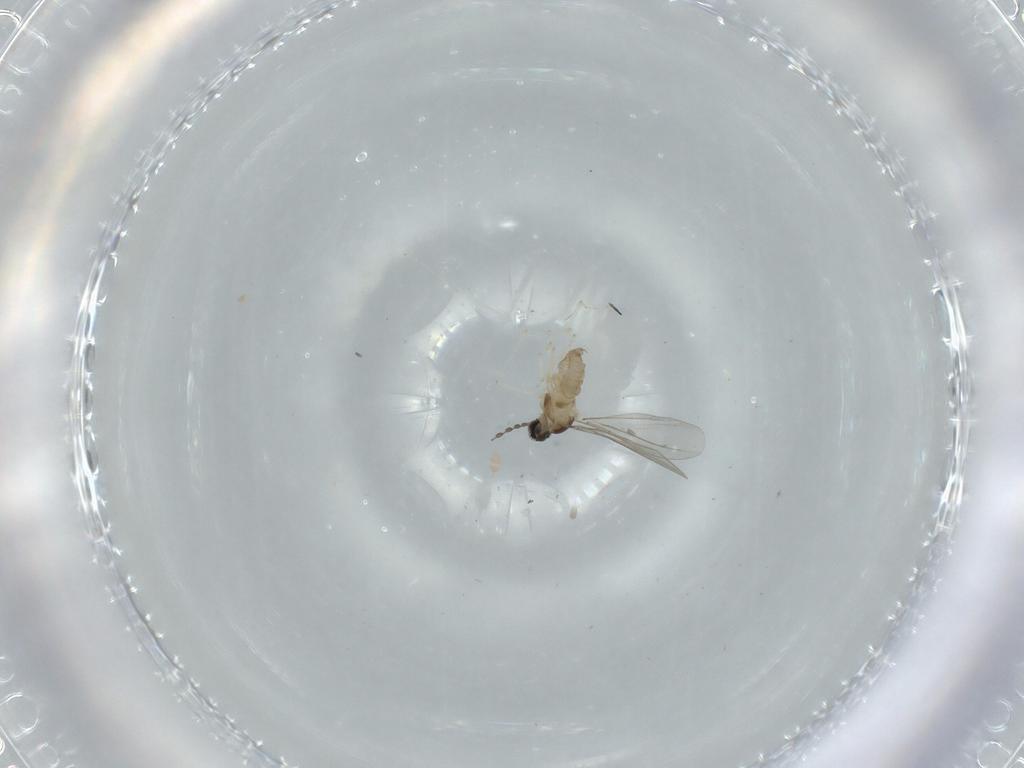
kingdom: Animalia
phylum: Arthropoda
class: Insecta
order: Diptera
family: Cecidomyiidae
